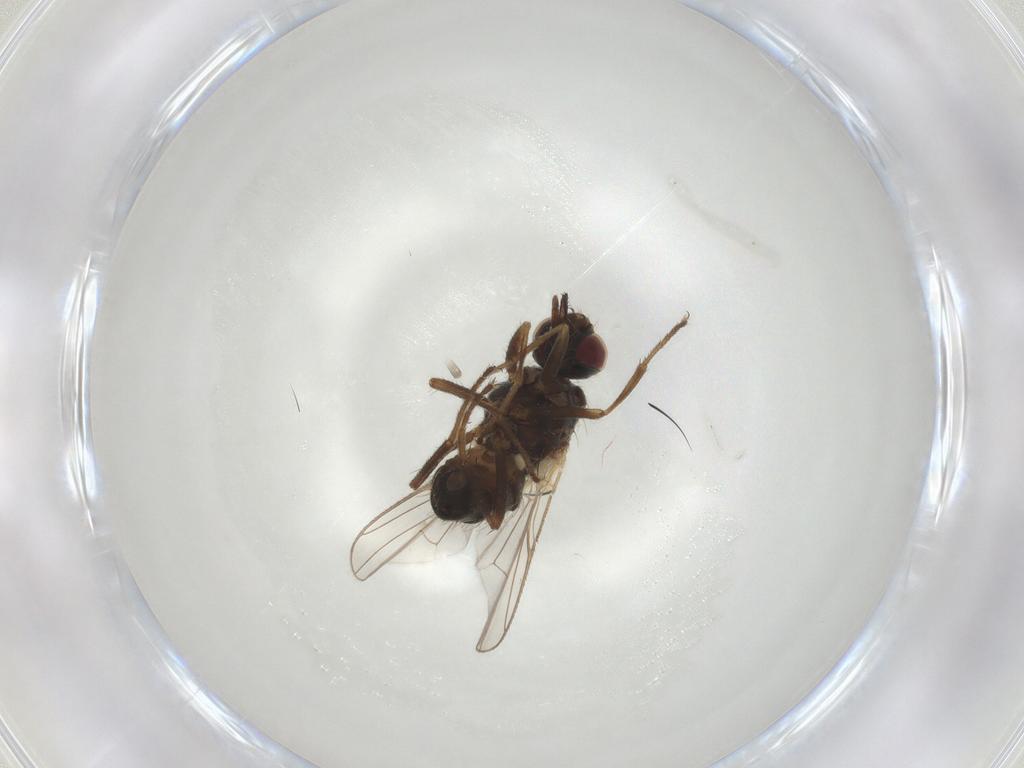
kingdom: Animalia
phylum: Arthropoda
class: Insecta
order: Diptera
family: Muscidae
